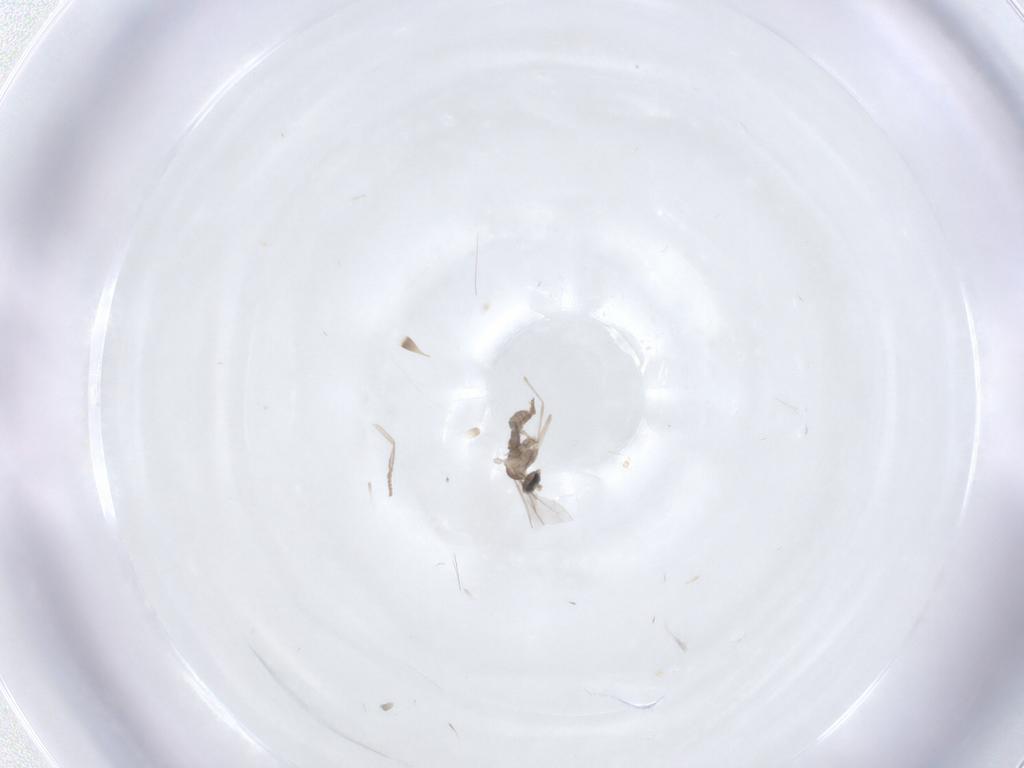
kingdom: Animalia
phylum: Arthropoda
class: Insecta
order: Diptera
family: Cecidomyiidae
